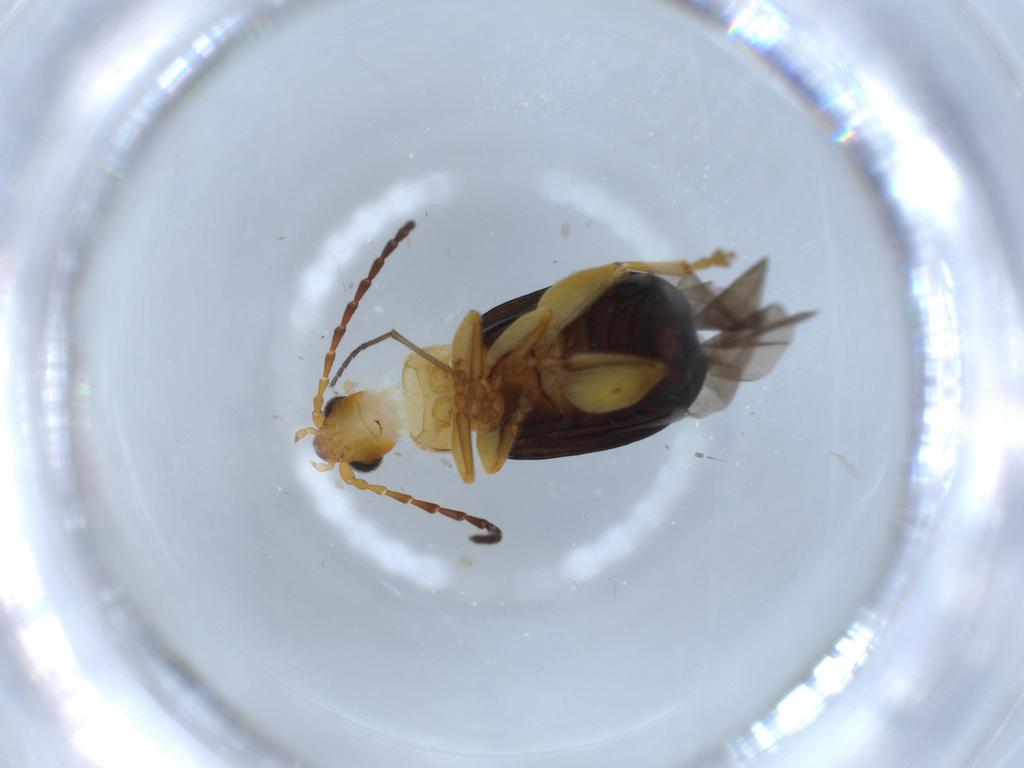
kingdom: Animalia
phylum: Arthropoda
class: Insecta
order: Coleoptera
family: Chrysomelidae
